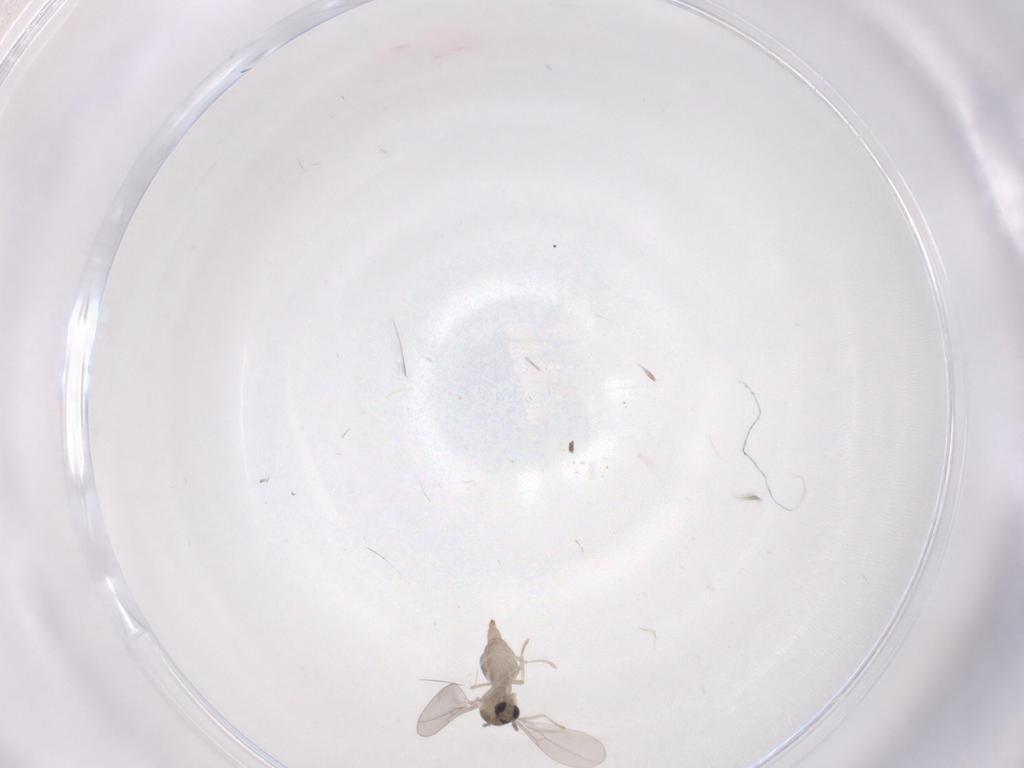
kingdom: Animalia
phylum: Arthropoda
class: Insecta
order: Diptera
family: Cecidomyiidae
